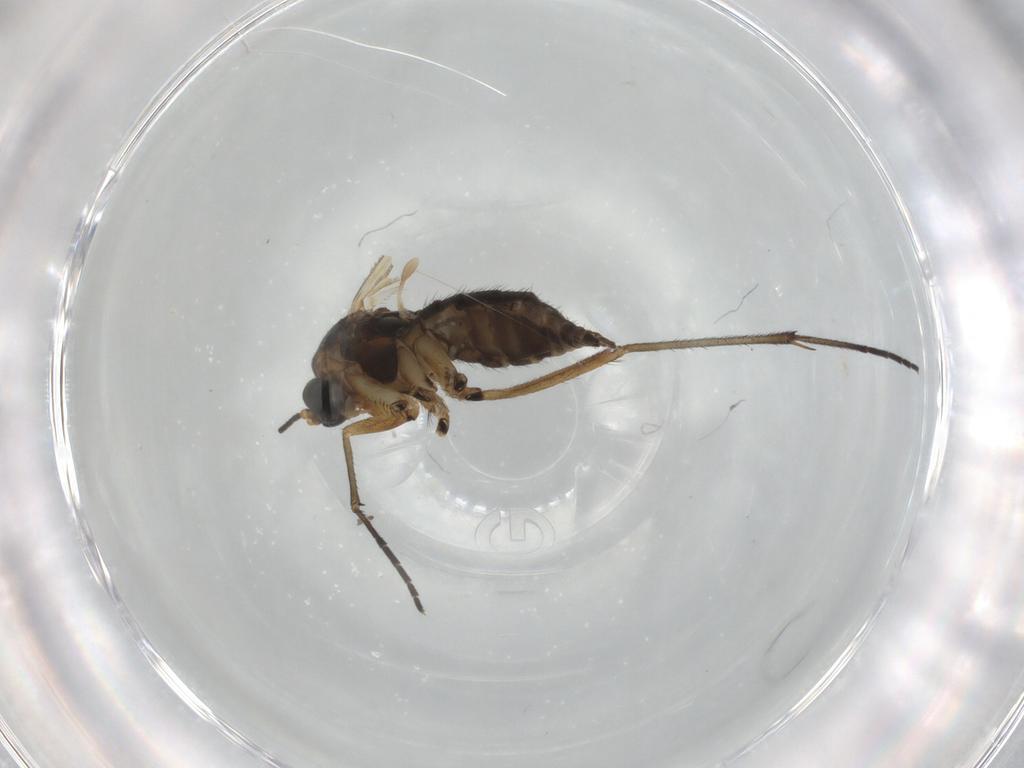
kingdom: Animalia
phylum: Arthropoda
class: Insecta
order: Diptera
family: Sciaridae
